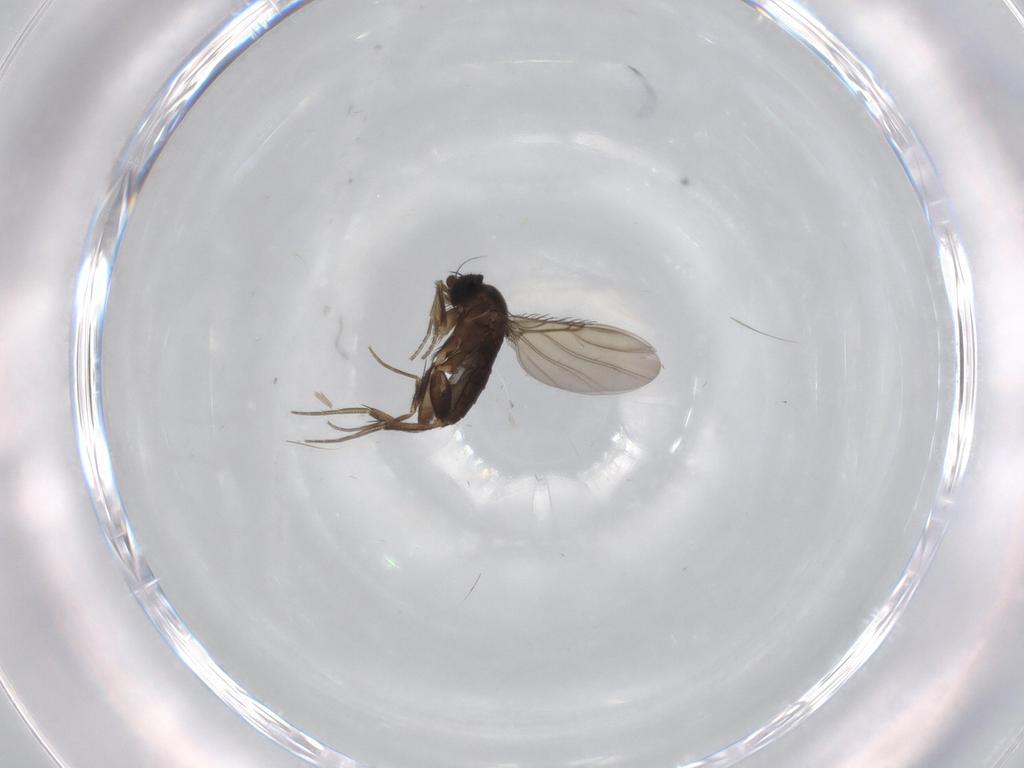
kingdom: Animalia
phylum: Arthropoda
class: Insecta
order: Diptera
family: Phoridae
